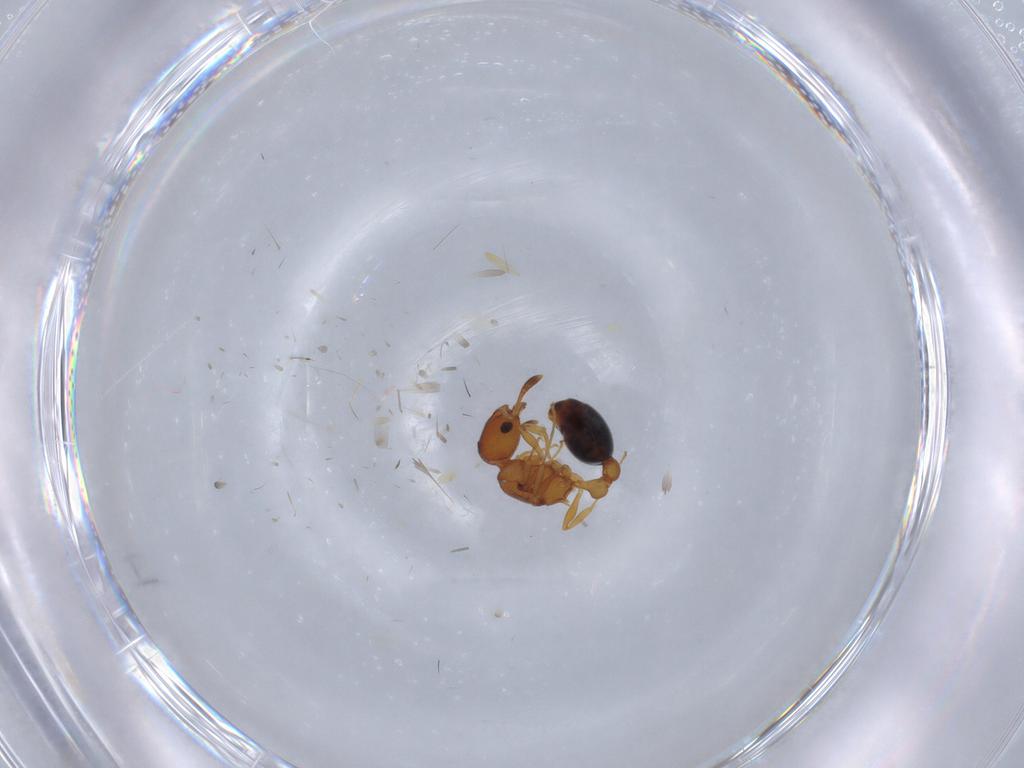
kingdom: Animalia
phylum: Arthropoda
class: Insecta
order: Hymenoptera
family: Formicidae
